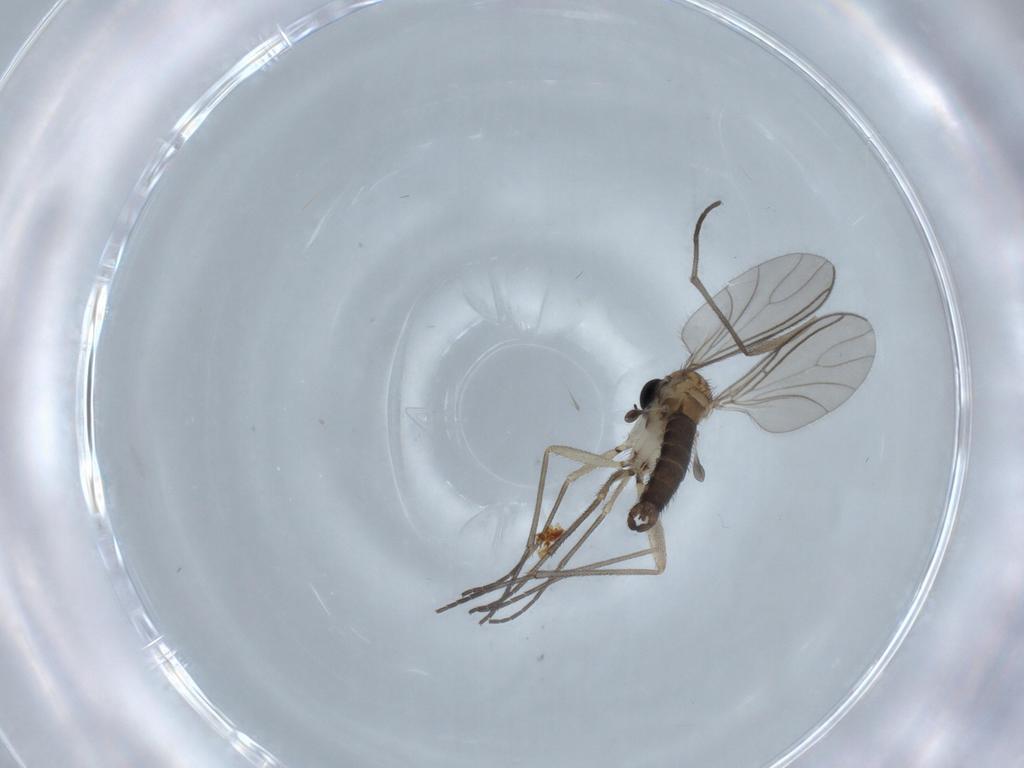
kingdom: Animalia
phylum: Arthropoda
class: Insecta
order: Diptera
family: Sciaridae
